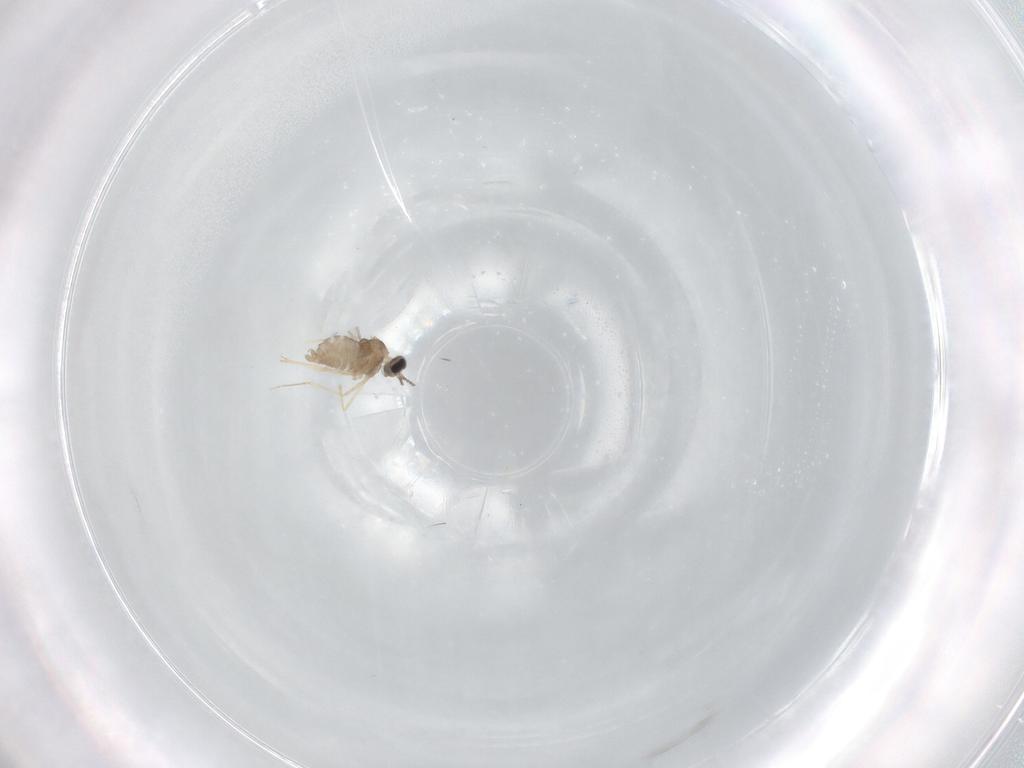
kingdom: Animalia
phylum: Arthropoda
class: Insecta
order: Diptera
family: Cecidomyiidae
